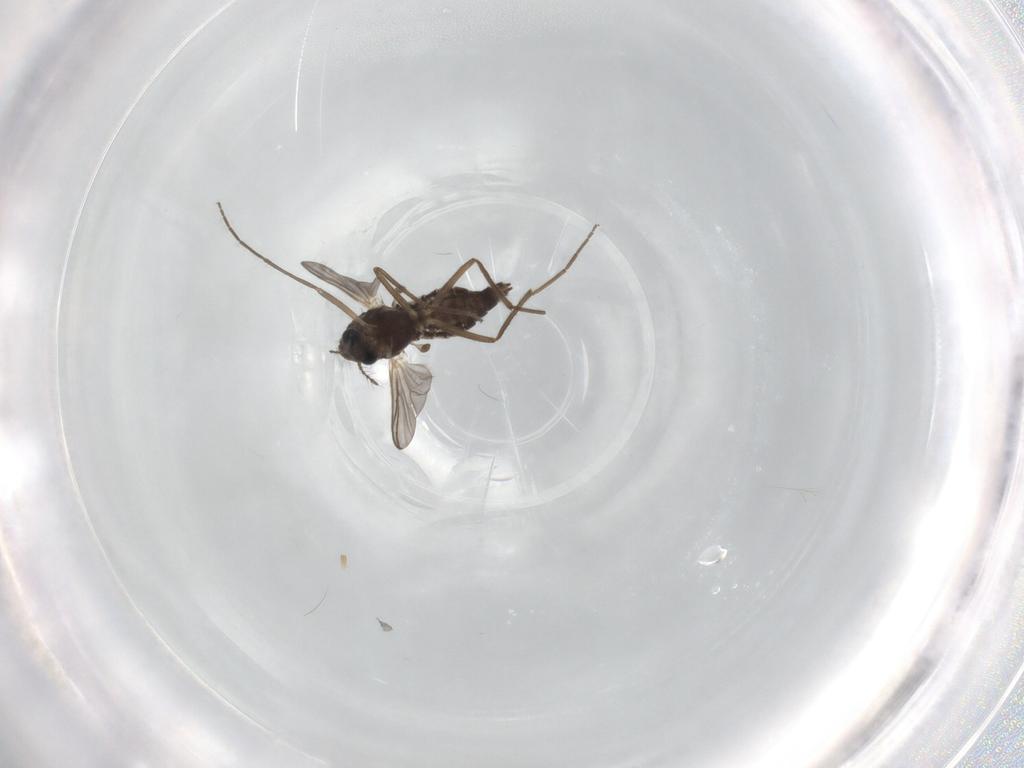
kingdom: Animalia
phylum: Arthropoda
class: Insecta
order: Diptera
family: Chironomidae
